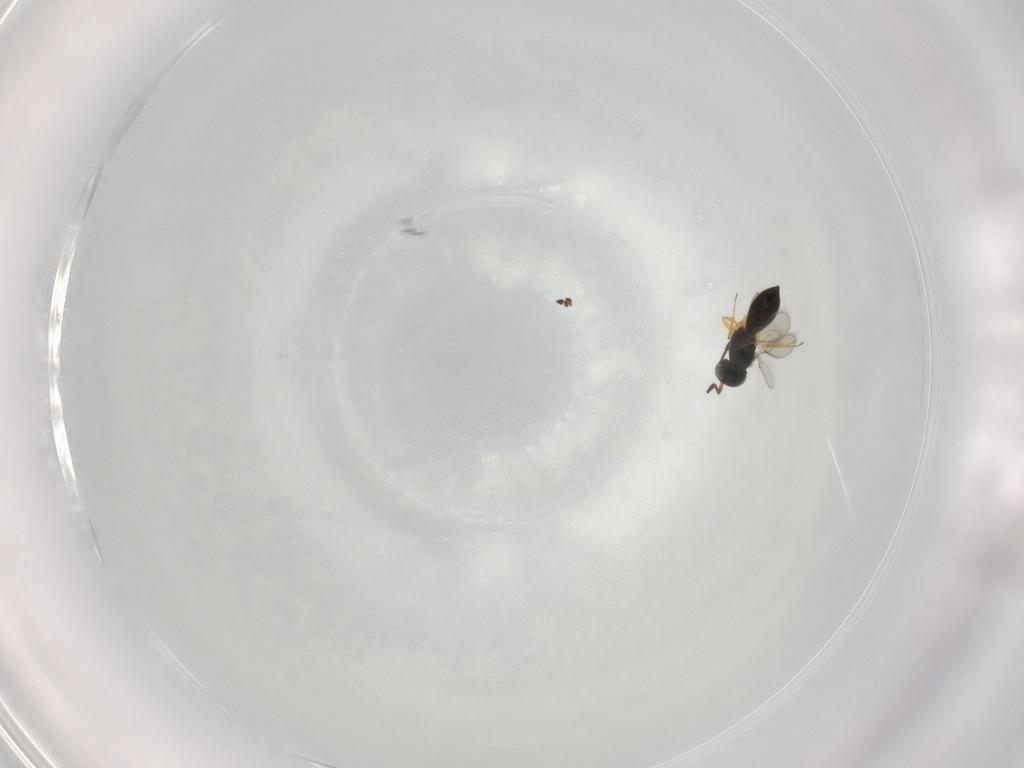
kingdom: Animalia
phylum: Arthropoda
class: Insecta
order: Hymenoptera
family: Scelionidae
